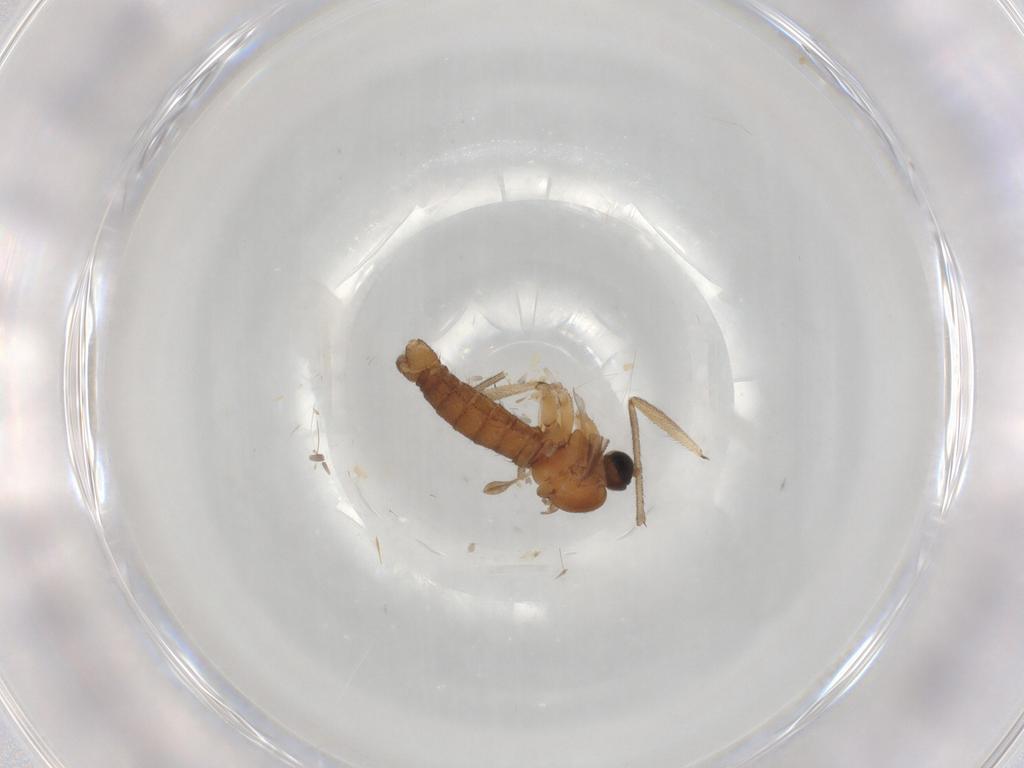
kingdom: Animalia
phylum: Arthropoda
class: Insecta
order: Diptera
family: Sciaridae
